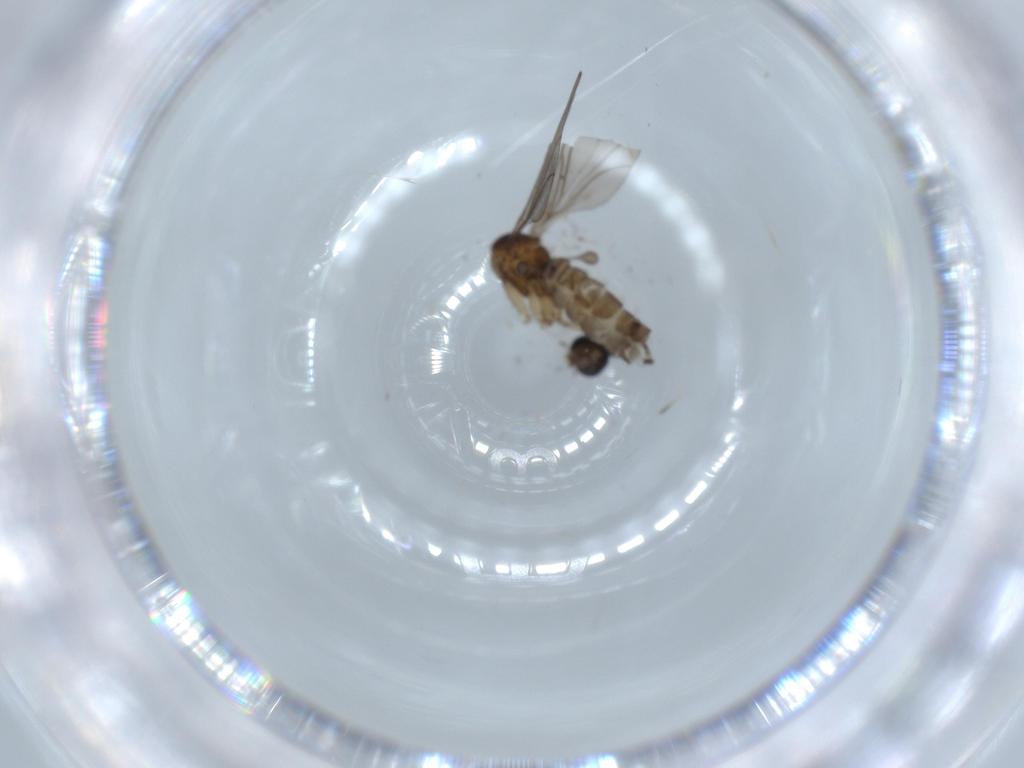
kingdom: Animalia
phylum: Arthropoda
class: Insecta
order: Diptera
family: Sciaridae
